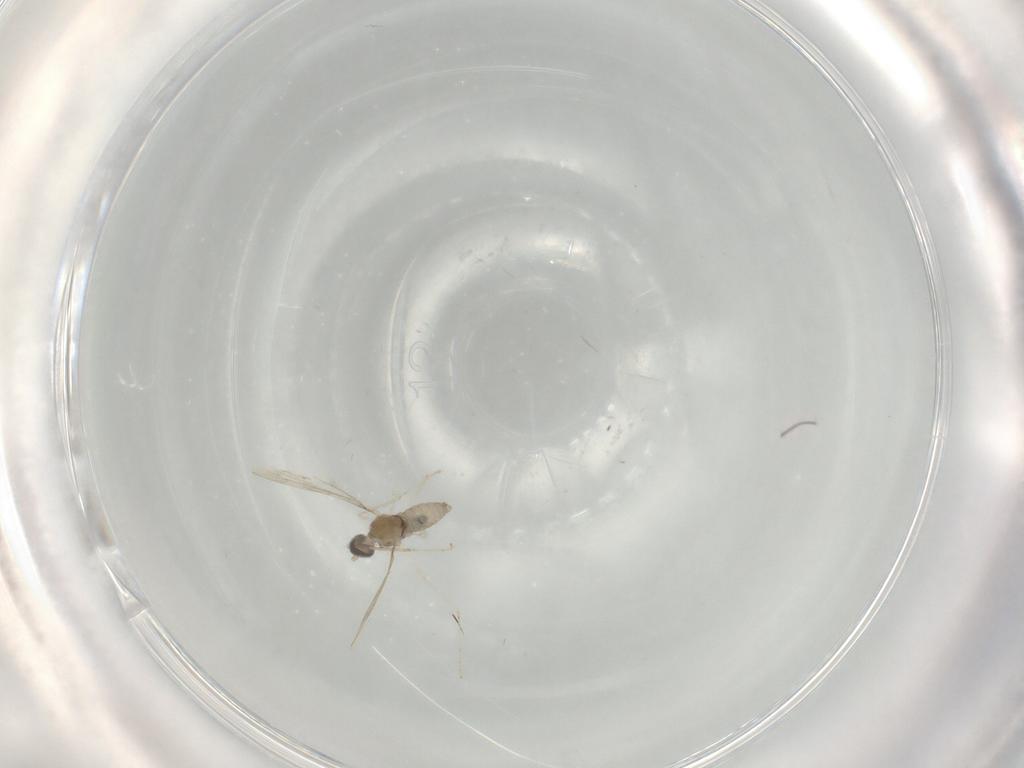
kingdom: Animalia
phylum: Arthropoda
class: Insecta
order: Diptera
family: Cecidomyiidae
